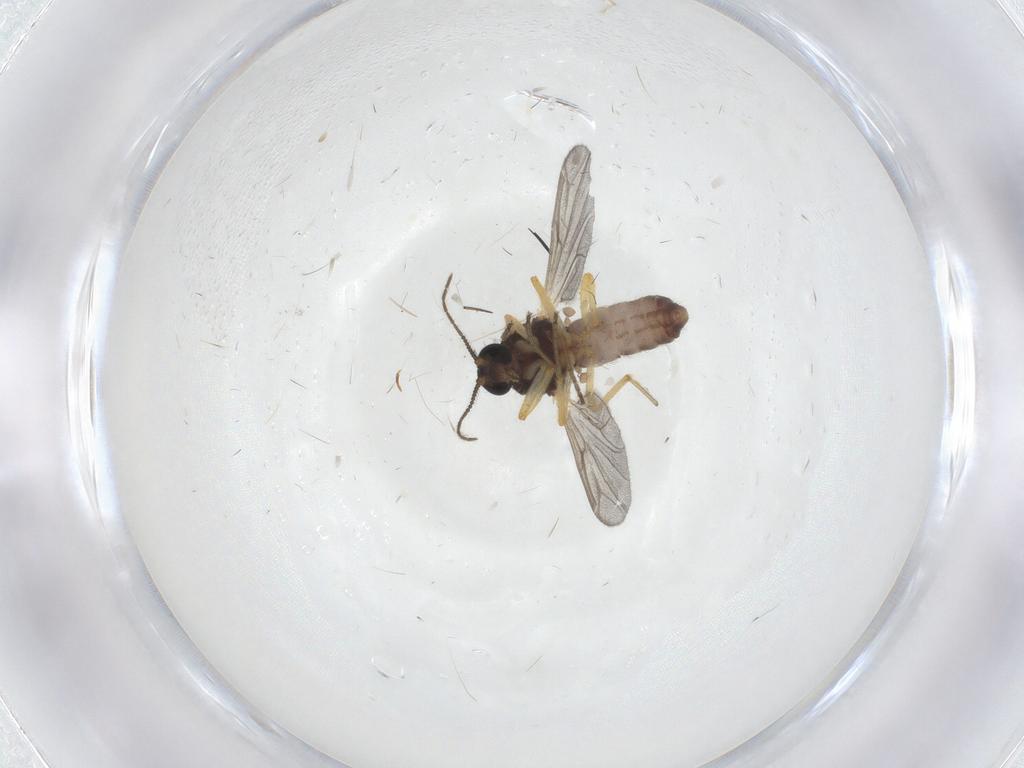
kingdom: Animalia
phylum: Arthropoda
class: Insecta
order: Diptera
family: Ceratopogonidae
